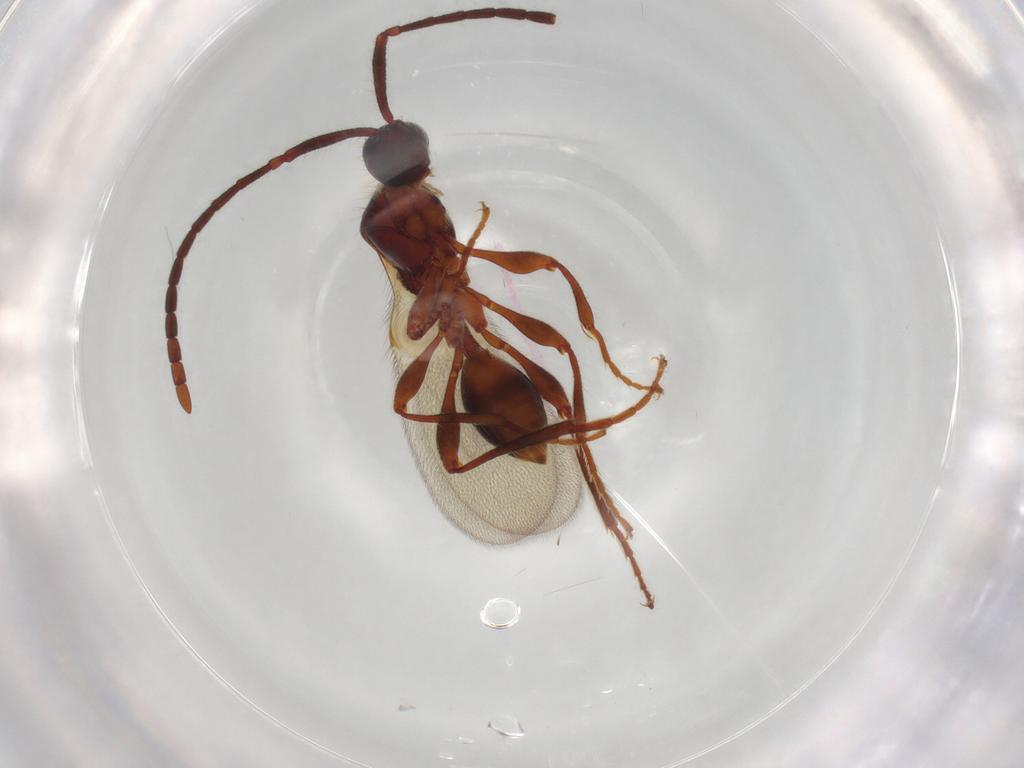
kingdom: Animalia
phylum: Arthropoda
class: Insecta
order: Hymenoptera
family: Diapriidae
